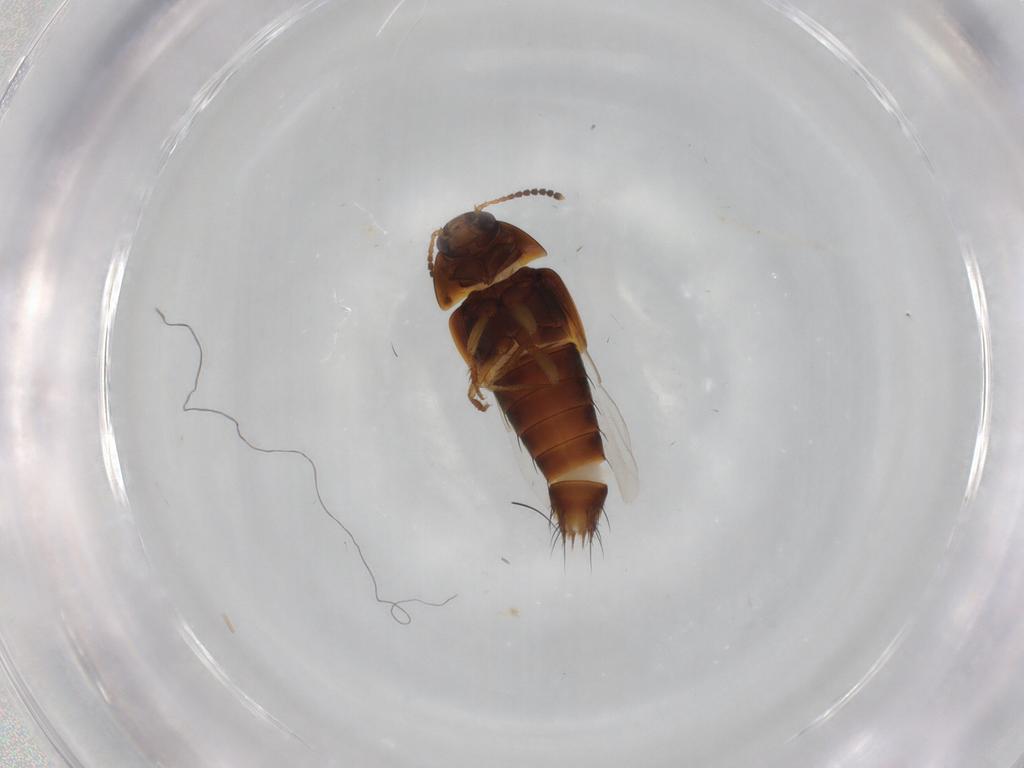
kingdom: Animalia
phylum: Arthropoda
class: Insecta
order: Coleoptera
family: Staphylinidae
